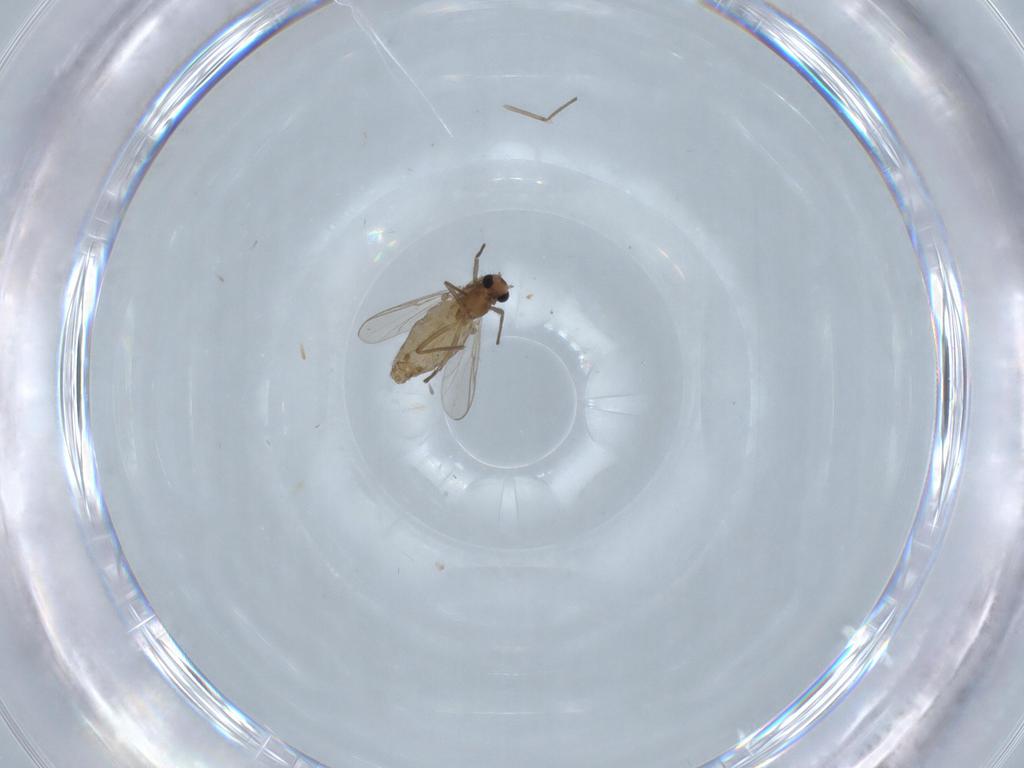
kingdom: Animalia
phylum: Arthropoda
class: Insecta
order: Diptera
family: Chironomidae
